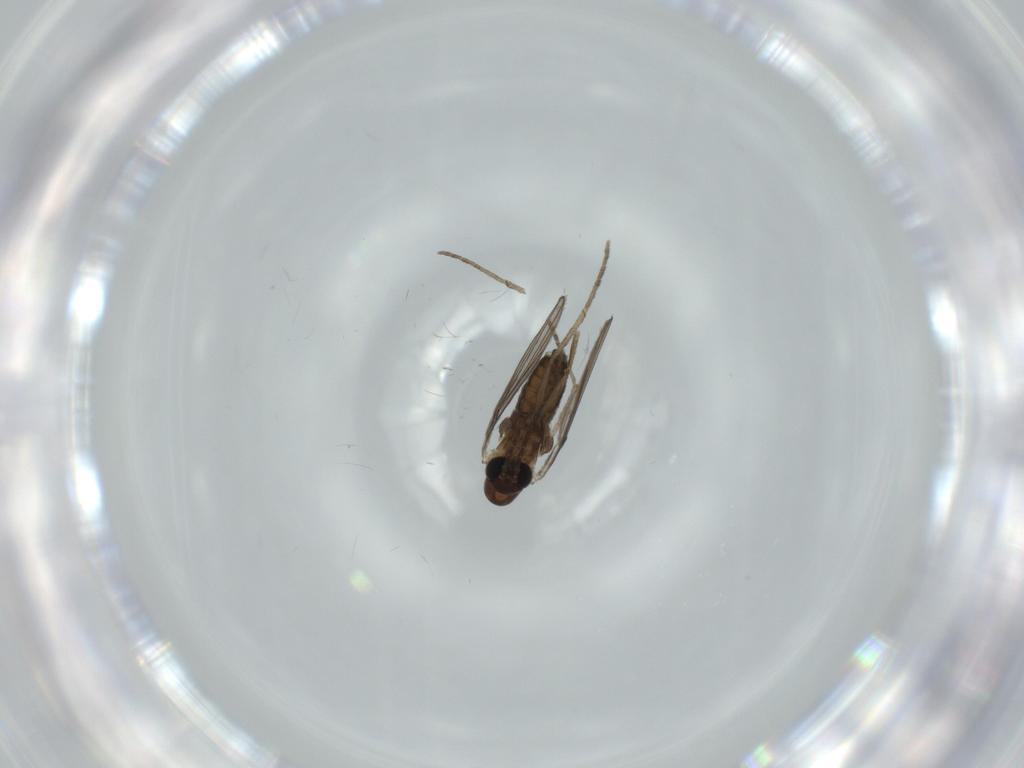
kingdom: Animalia
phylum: Arthropoda
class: Insecta
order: Diptera
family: Psychodidae
